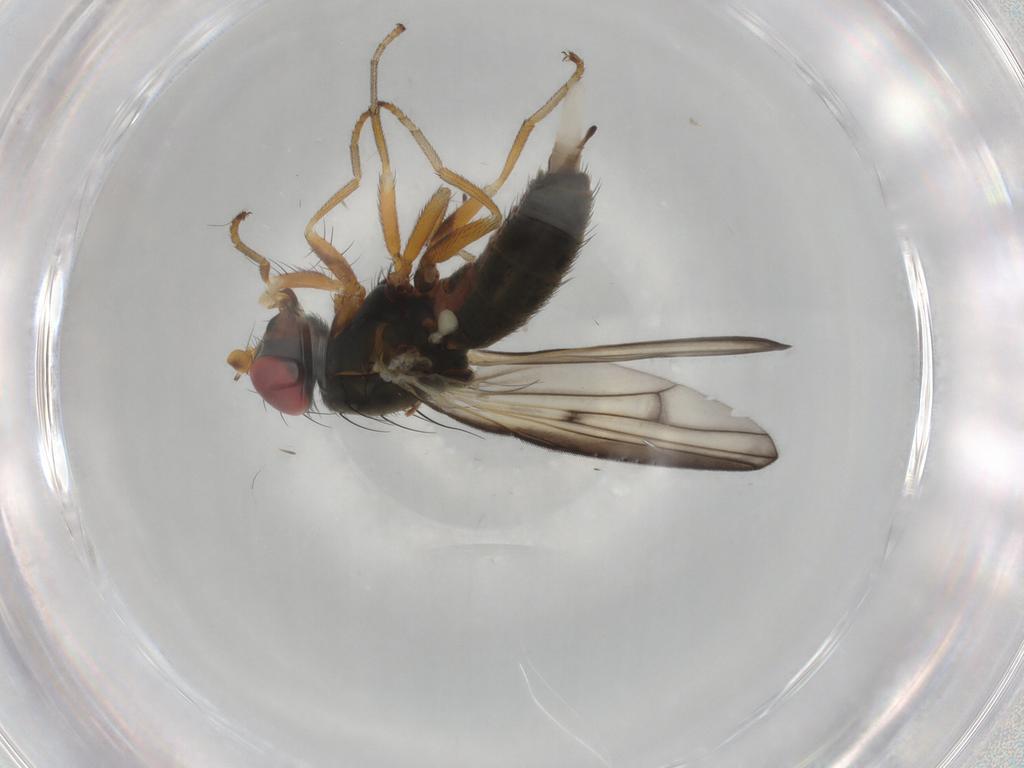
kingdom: Animalia
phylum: Arthropoda
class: Insecta
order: Diptera
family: Chamaemyiidae
